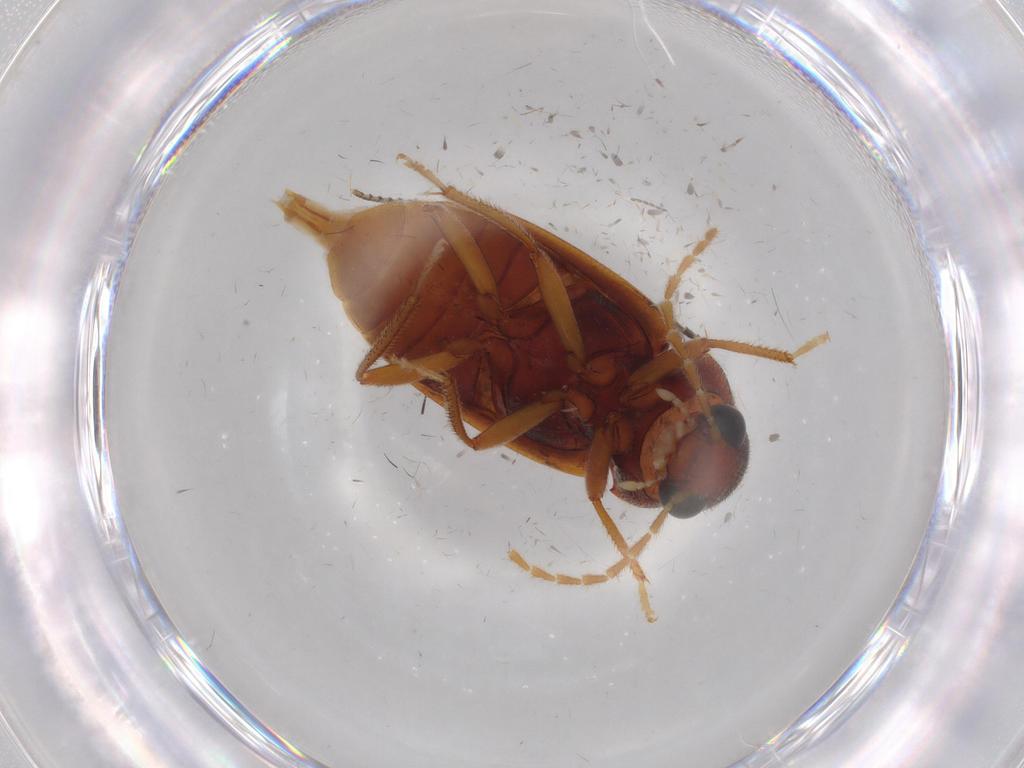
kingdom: Animalia
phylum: Arthropoda
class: Insecta
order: Coleoptera
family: Ptilodactylidae
